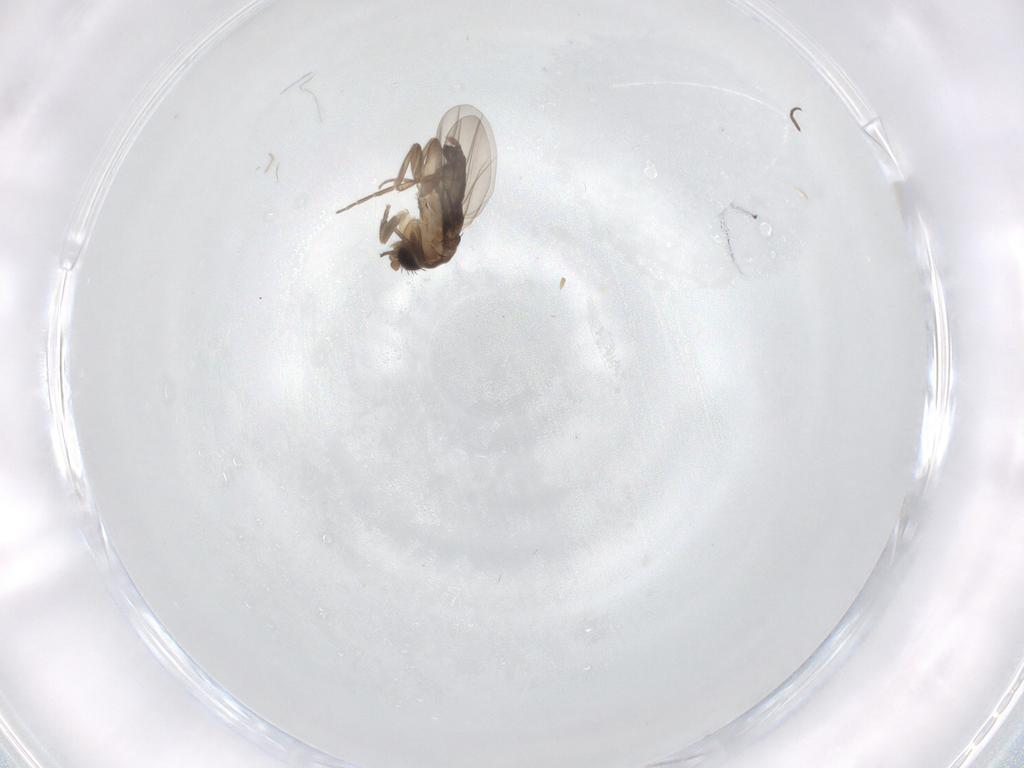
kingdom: Animalia
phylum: Arthropoda
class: Insecta
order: Diptera
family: Phoridae
